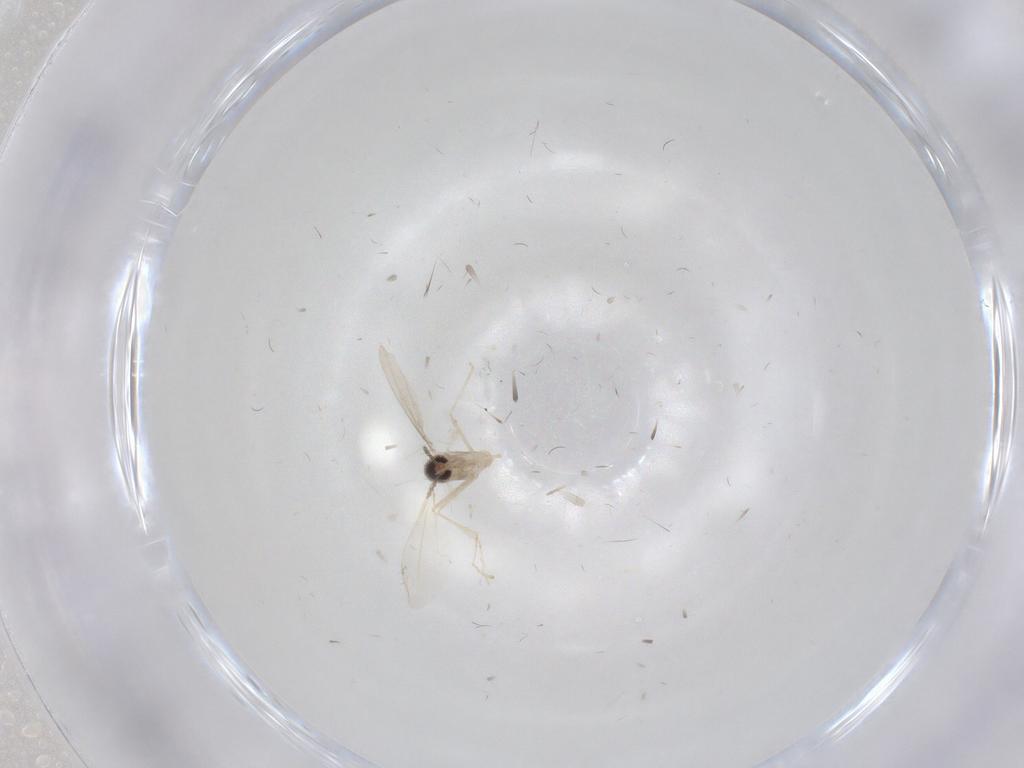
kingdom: Animalia
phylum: Arthropoda
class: Insecta
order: Diptera
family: Cecidomyiidae
